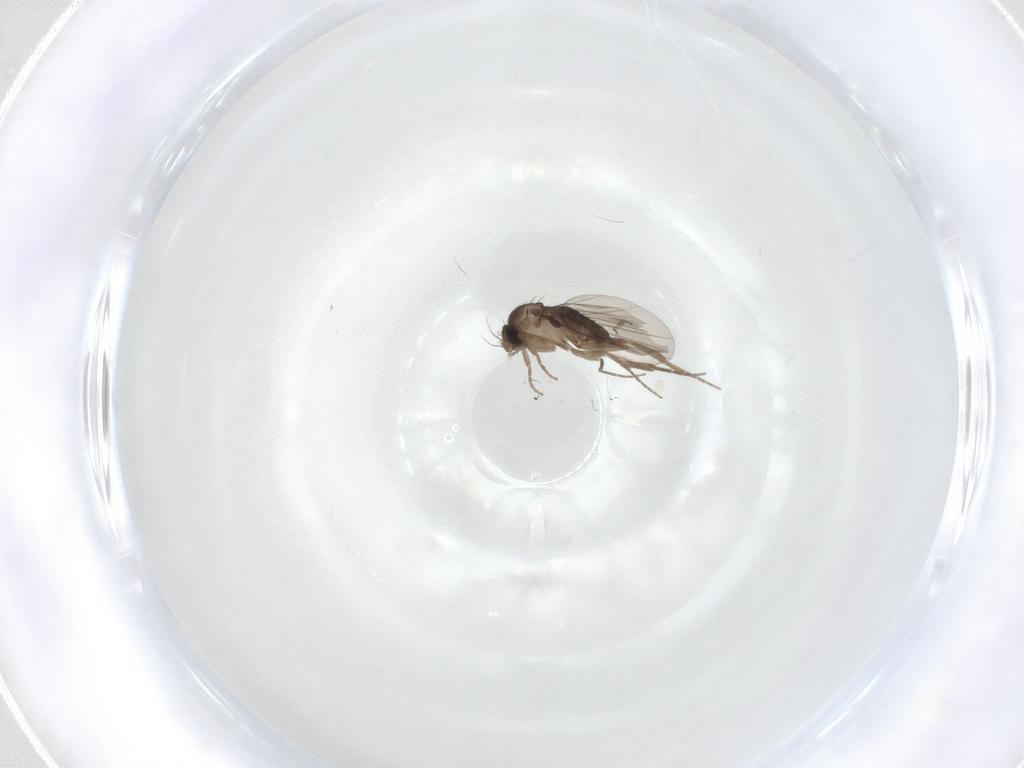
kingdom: Animalia
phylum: Arthropoda
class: Insecta
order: Diptera
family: Phoridae
